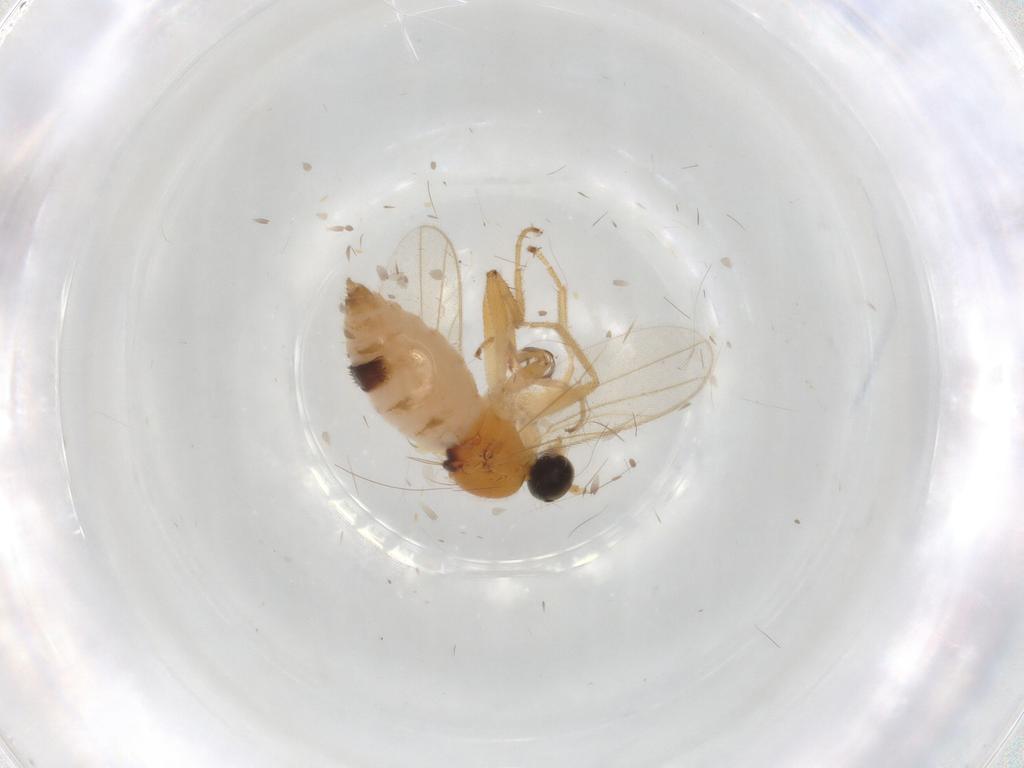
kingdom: Animalia
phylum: Arthropoda
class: Insecta
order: Diptera
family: Hybotidae
